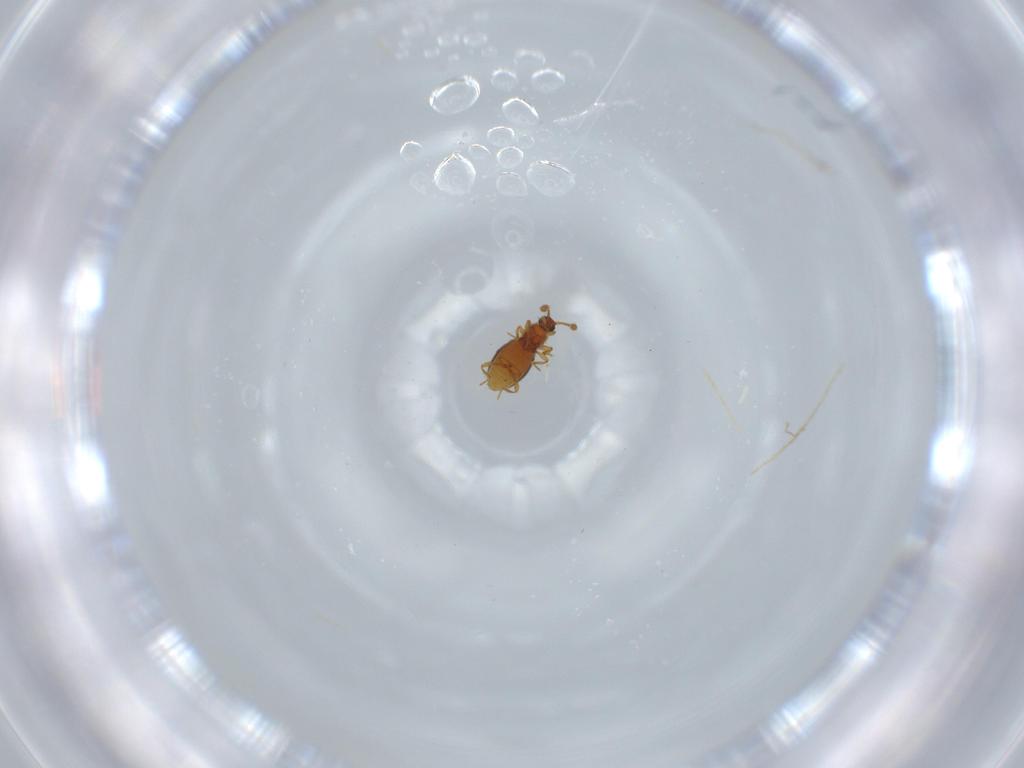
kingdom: Animalia
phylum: Arthropoda
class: Insecta
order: Coleoptera
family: Staphylinidae
